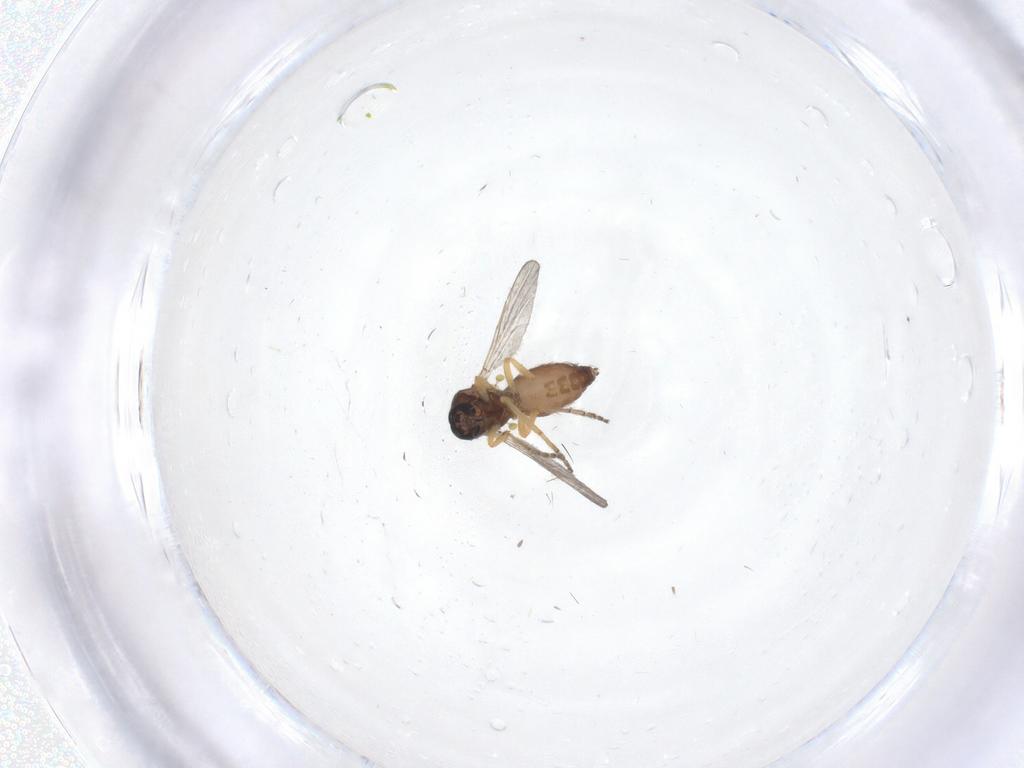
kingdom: Animalia
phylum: Arthropoda
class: Insecta
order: Diptera
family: Ceratopogonidae
